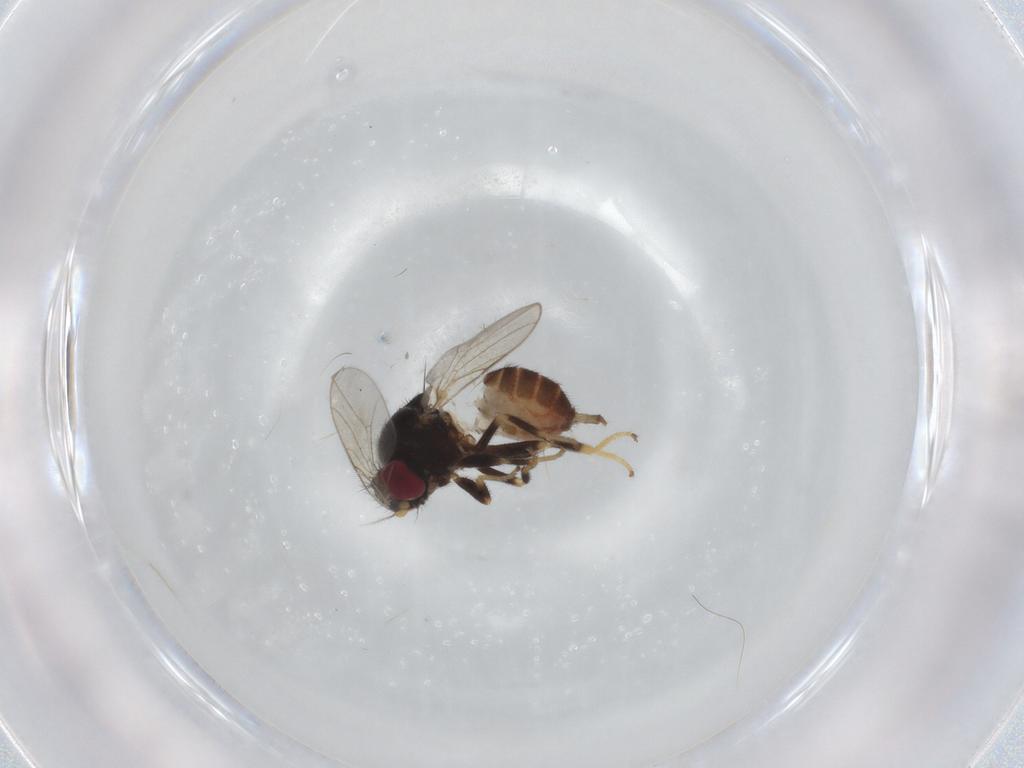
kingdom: Animalia
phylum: Arthropoda
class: Insecta
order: Diptera
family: Chloropidae
